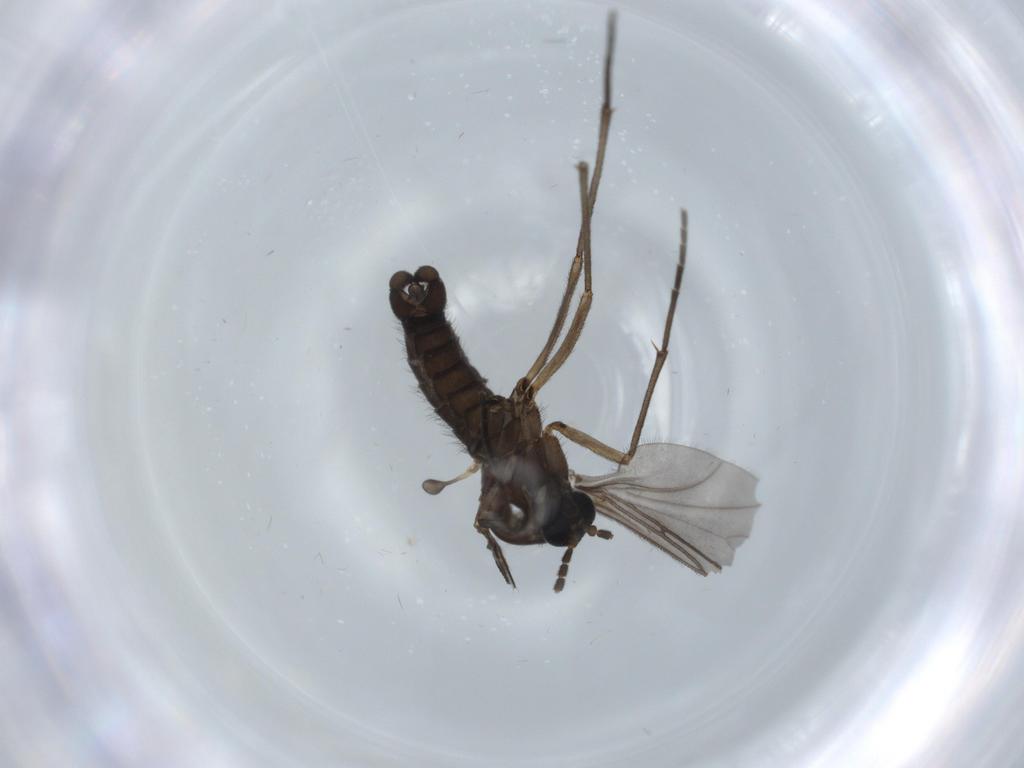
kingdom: Animalia
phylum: Arthropoda
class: Insecta
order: Diptera
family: Sciaridae
